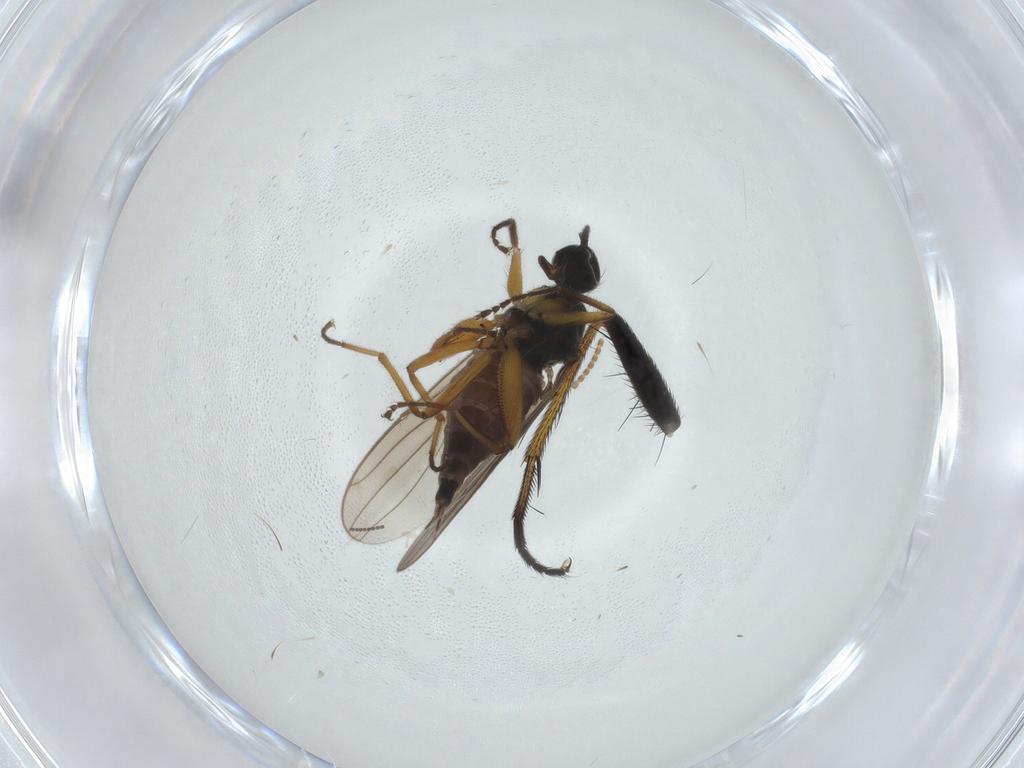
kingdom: Animalia
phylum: Arthropoda
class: Insecta
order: Diptera
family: Hybotidae
